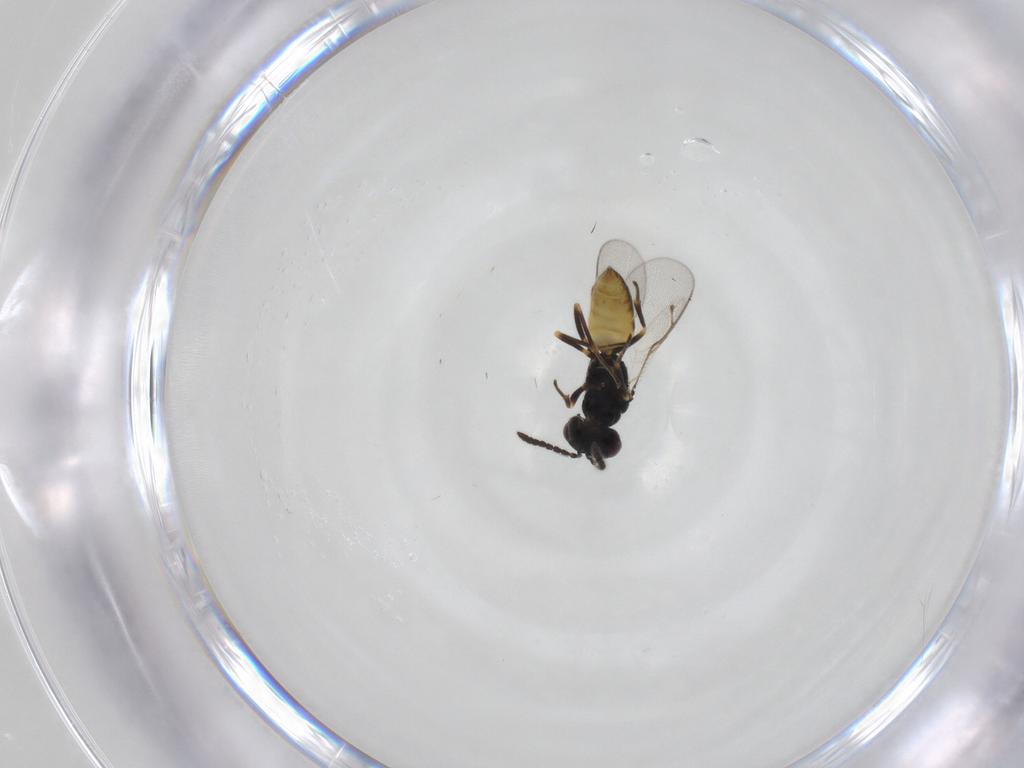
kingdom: Animalia
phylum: Arthropoda
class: Insecta
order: Hymenoptera
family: Pteromalidae
